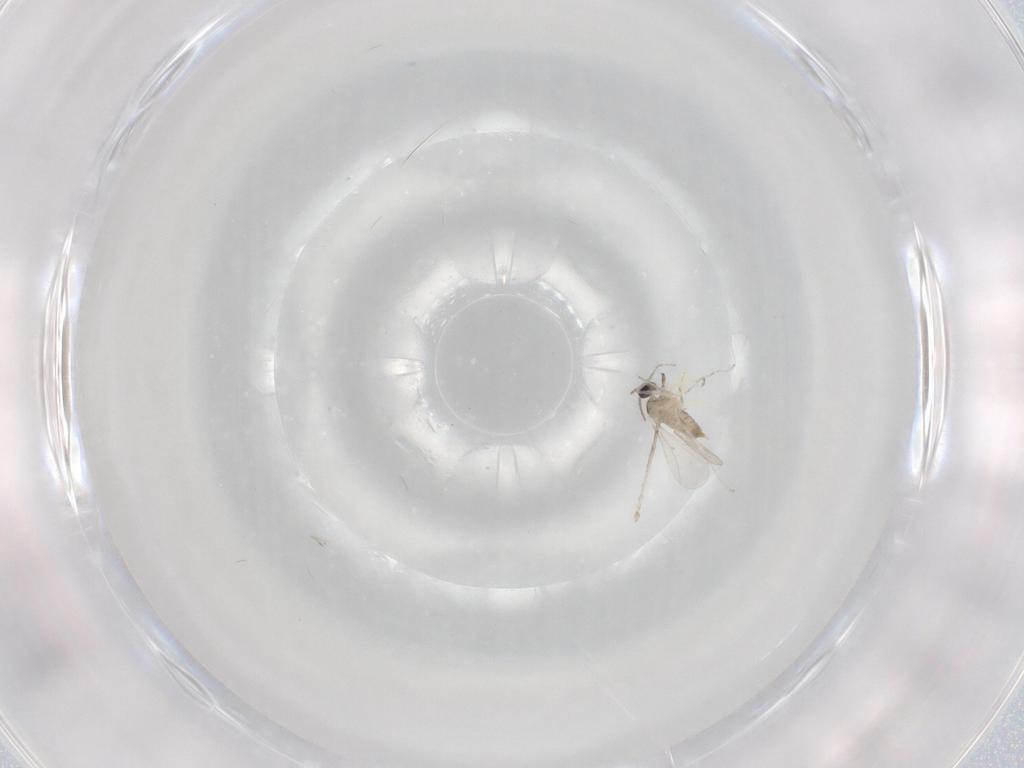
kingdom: Animalia
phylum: Arthropoda
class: Insecta
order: Diptera
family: Cecidomyiidae
